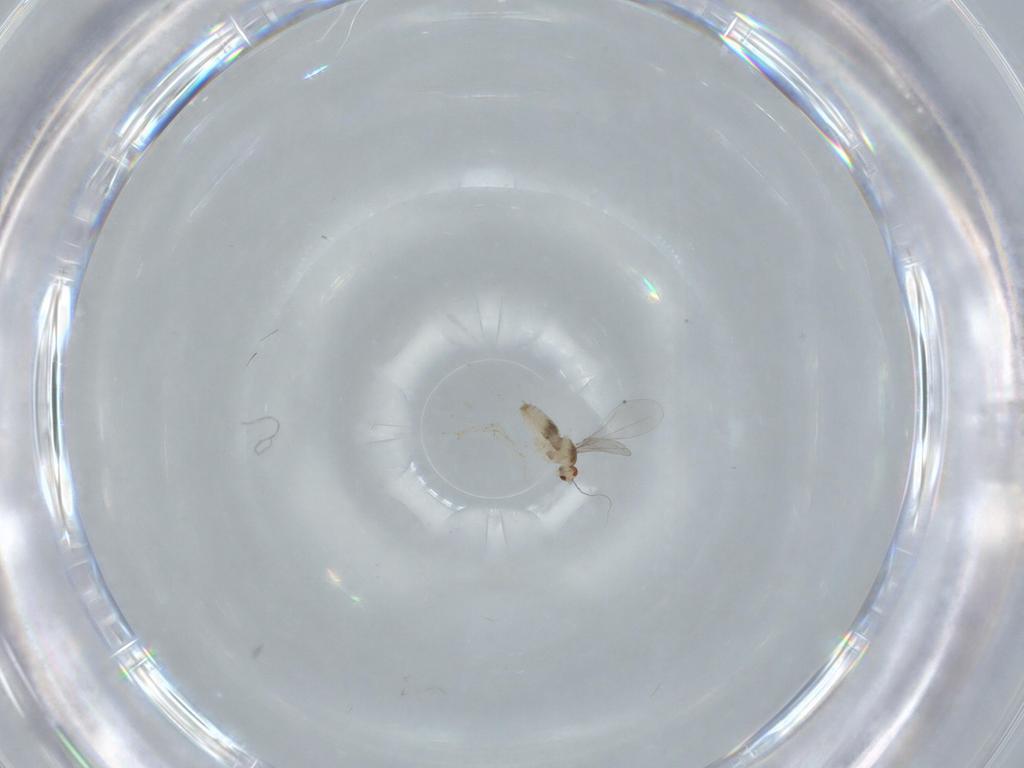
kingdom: Animalia
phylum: Arthropoda
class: Insecta
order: Diptera
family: Cecidomyiidae
